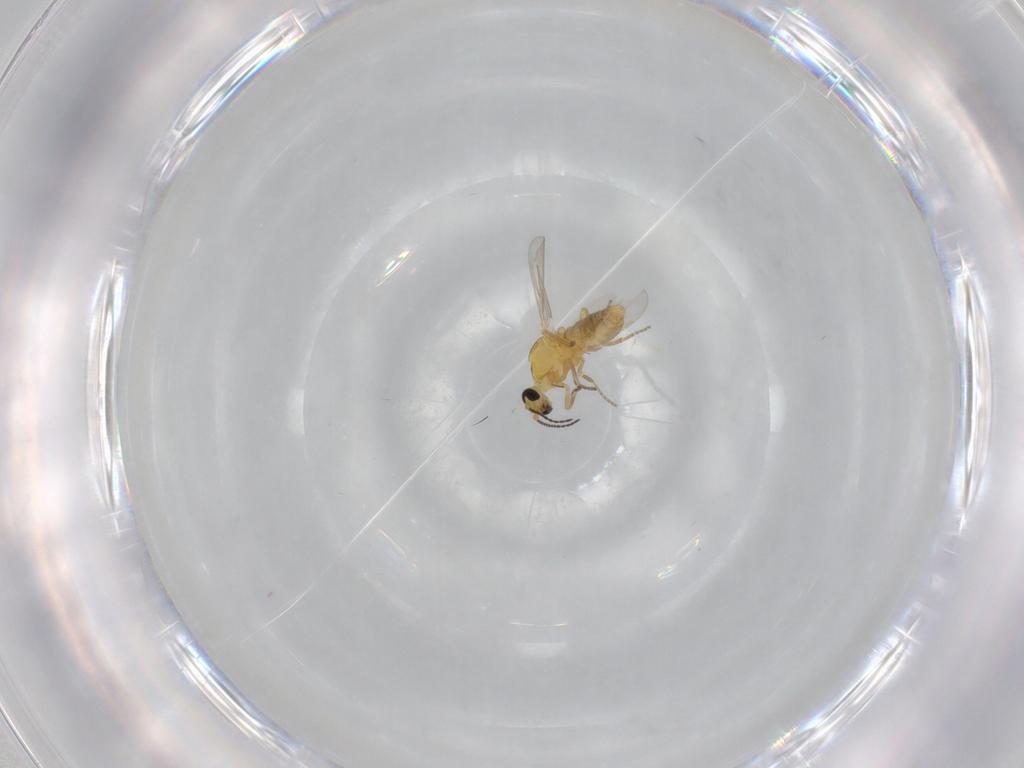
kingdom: Animalia
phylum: Arthropoda
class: Insecta
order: Diptera
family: Ceratopogonidae
